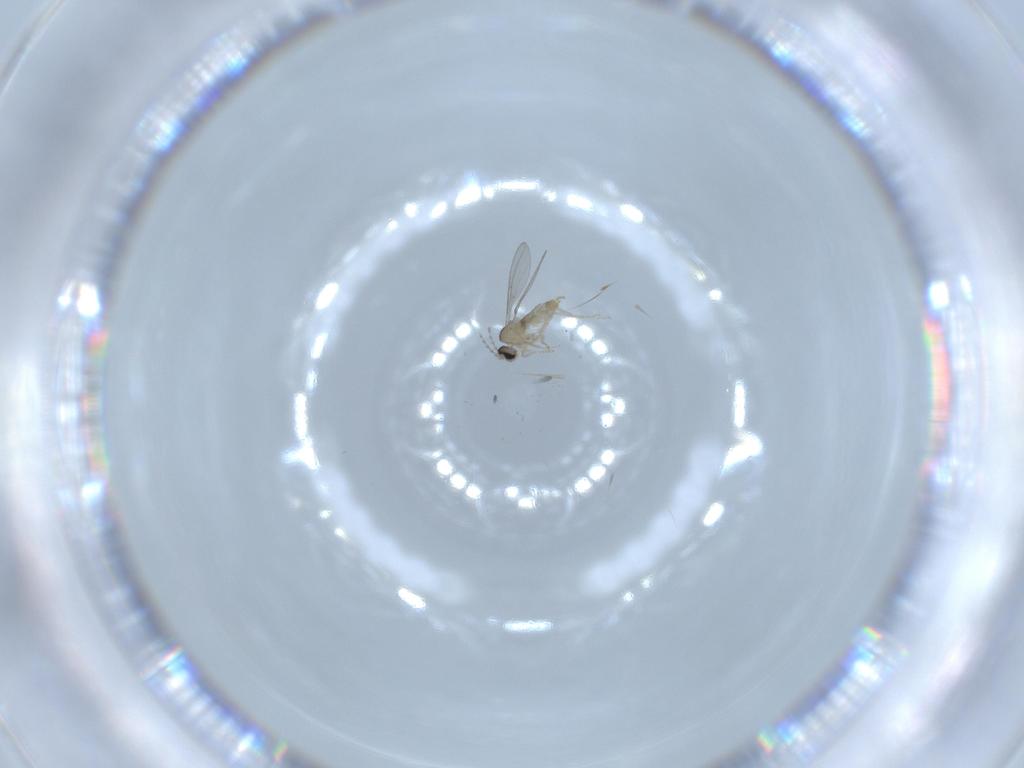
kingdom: Animalia
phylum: Arthropoda
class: Insecta
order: Diptera
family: Cecidomyiidae
